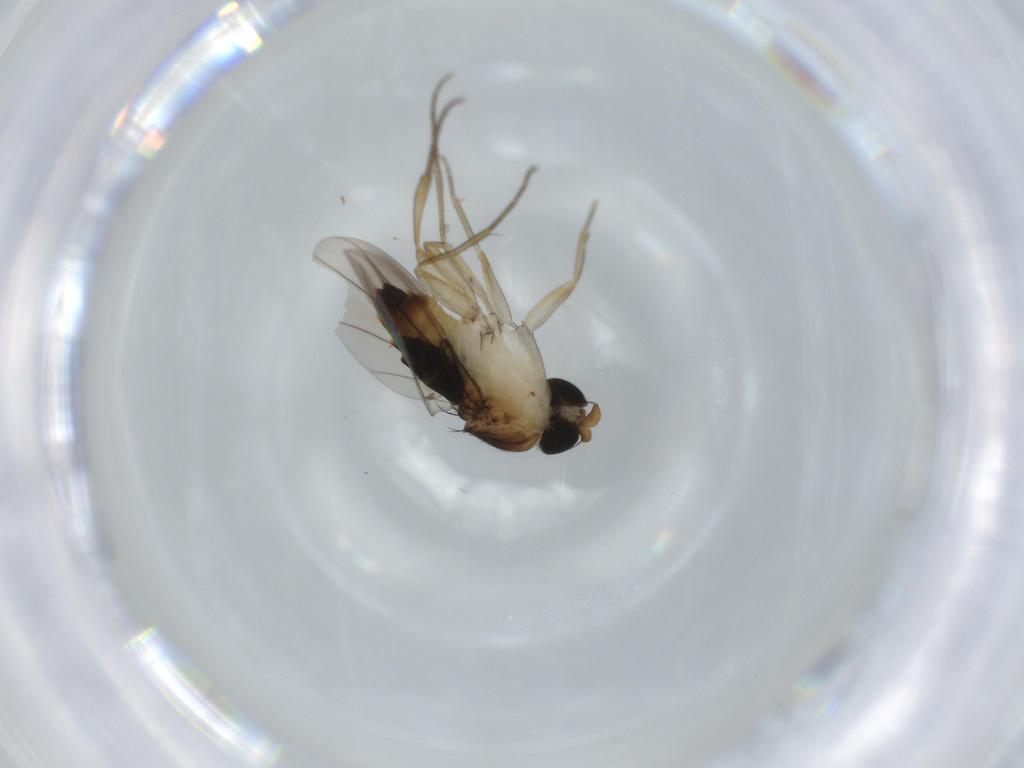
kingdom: Animalia
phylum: Arthropoda
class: Insecta
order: Diptera
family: Phoridae
